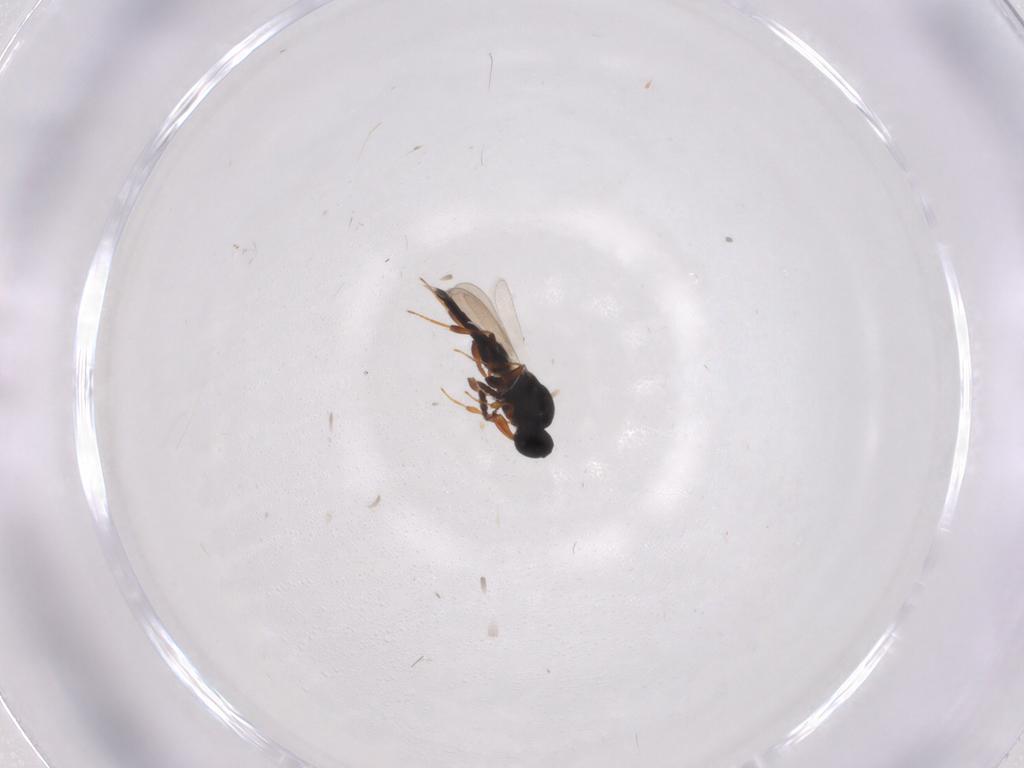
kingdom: Animalia
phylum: Arthropoda
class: Insecta
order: Hymenoptera
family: Platygastridae
